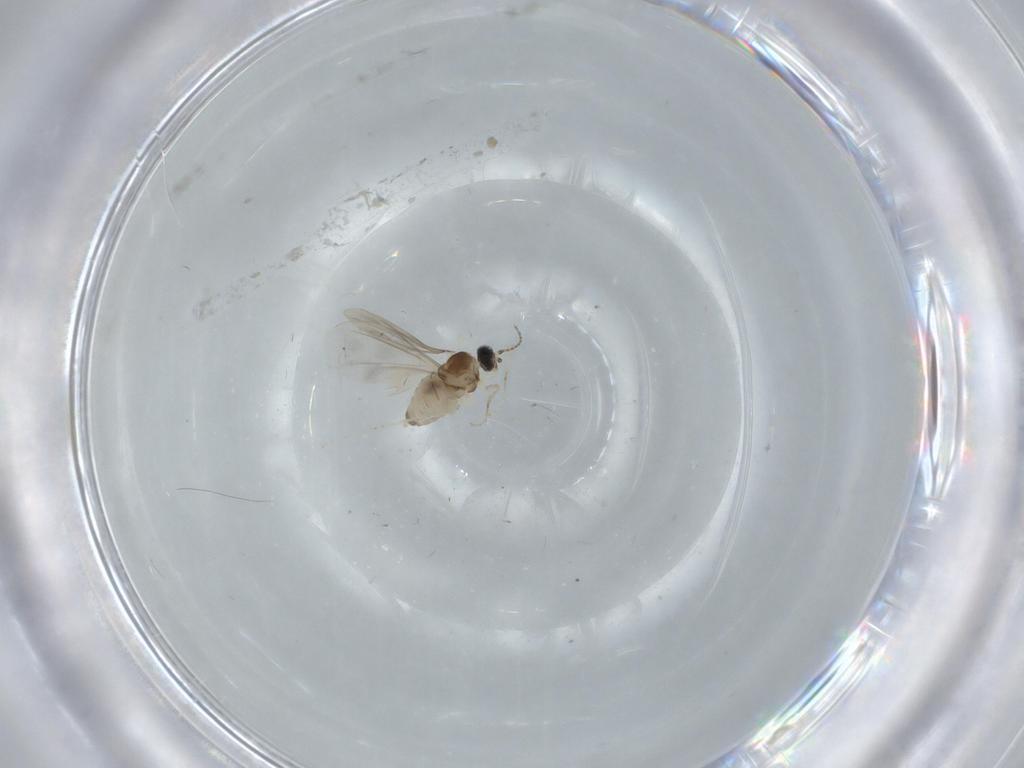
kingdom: Animalia
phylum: Arthropoda
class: Insecta
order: Diptera
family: Cecidomyiidae
